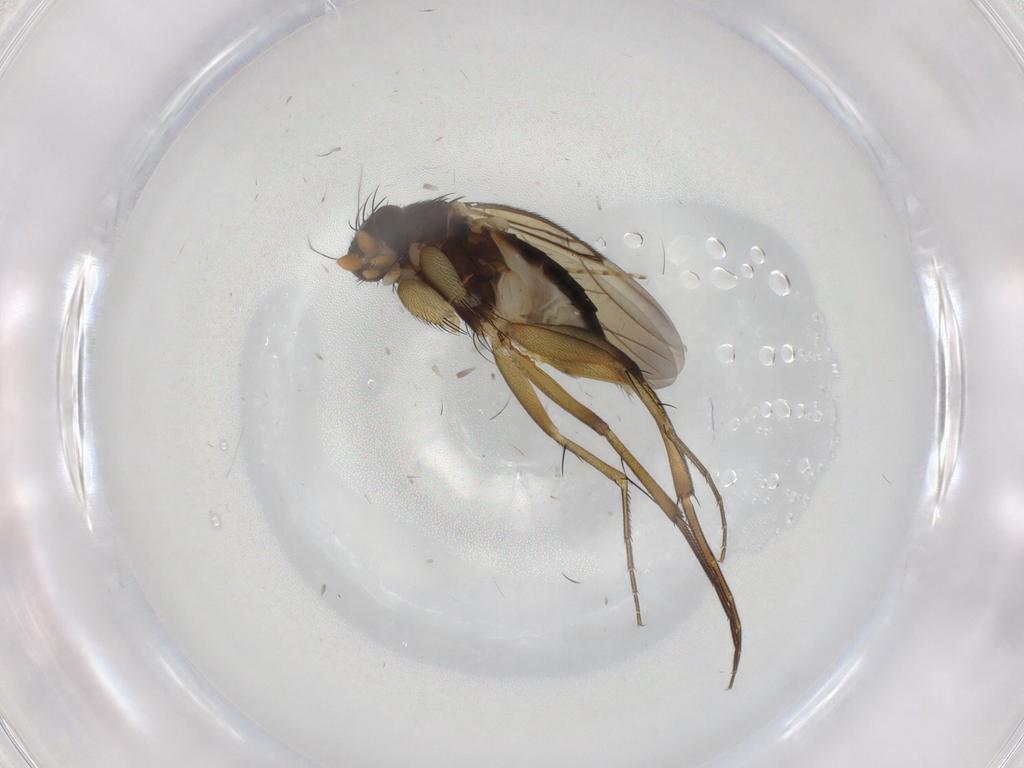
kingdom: Animalia
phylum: Arthropoda
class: Insecta
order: Diptera
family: Phoridae
